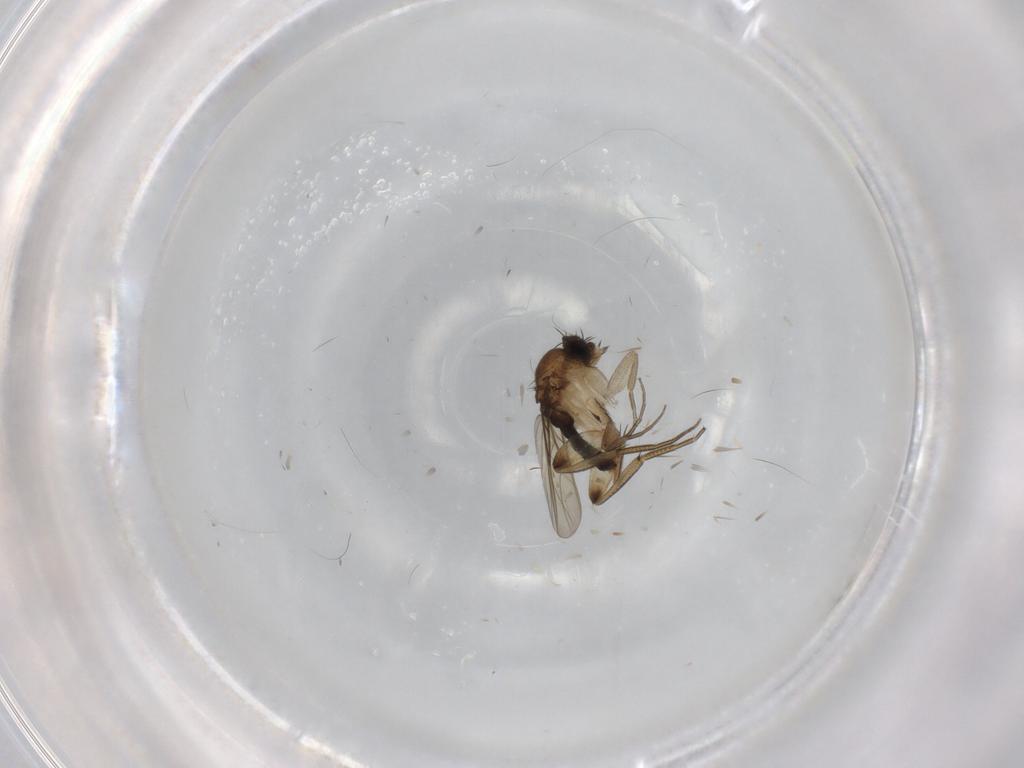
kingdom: Animalia
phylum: Arthropoda
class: Insecta
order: Diptera
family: Phoridae
